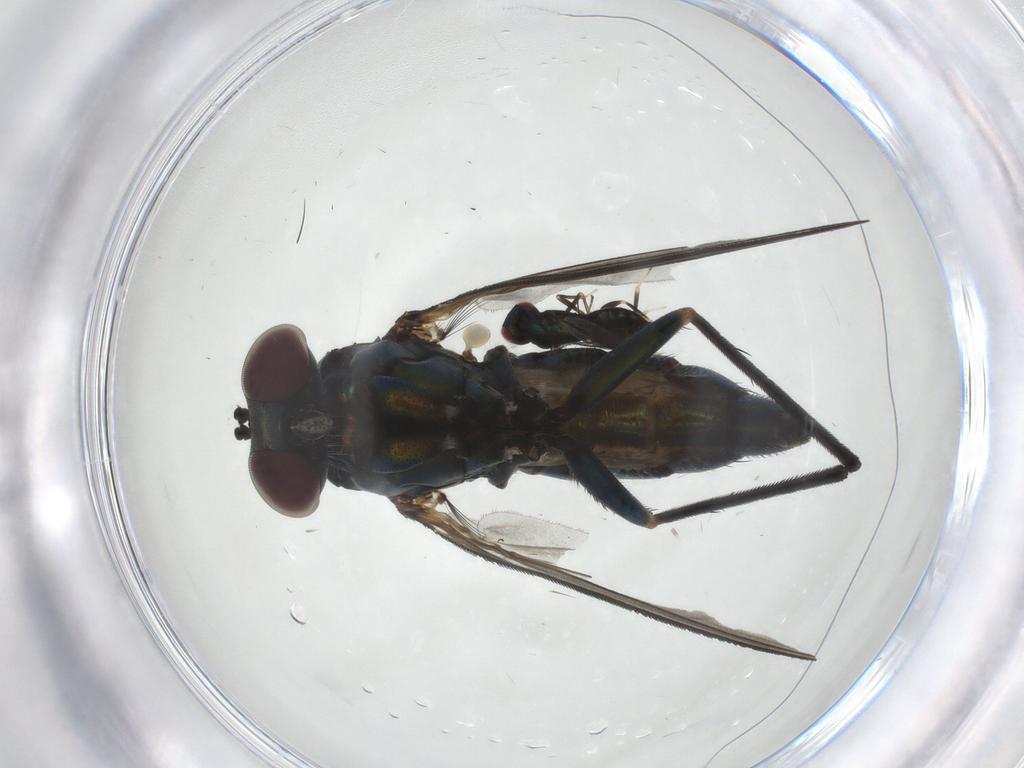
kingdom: Animalia
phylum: Arthropoda
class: Insecta
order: Diptera
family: Dolichopodidae
